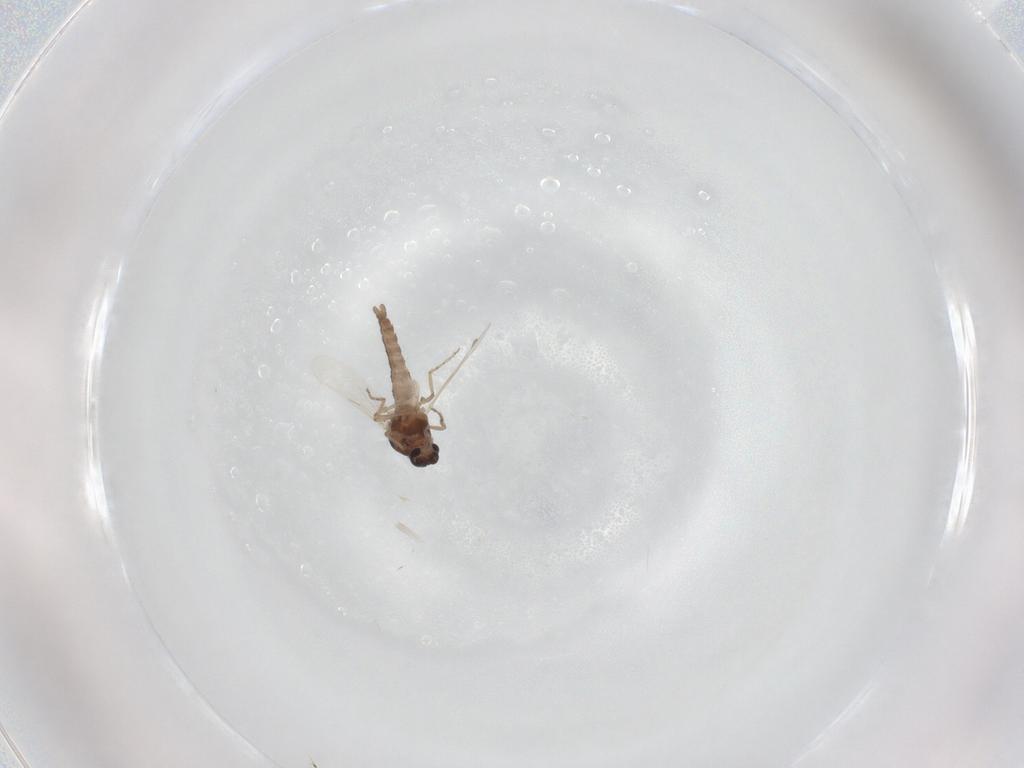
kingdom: Animalia
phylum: Arthropoda
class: Insecta
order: Diptera
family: Ceratopogonidae
